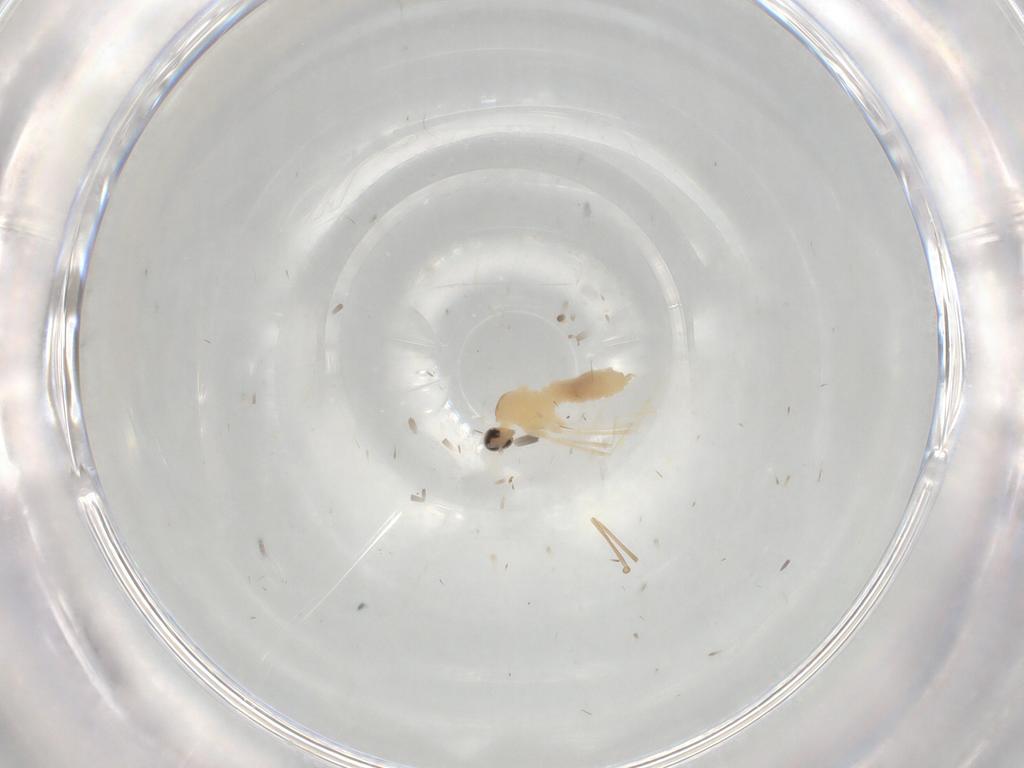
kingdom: Animalia
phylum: Arthropoda
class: Insecta
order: Diptera
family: Cecidomyiidae
